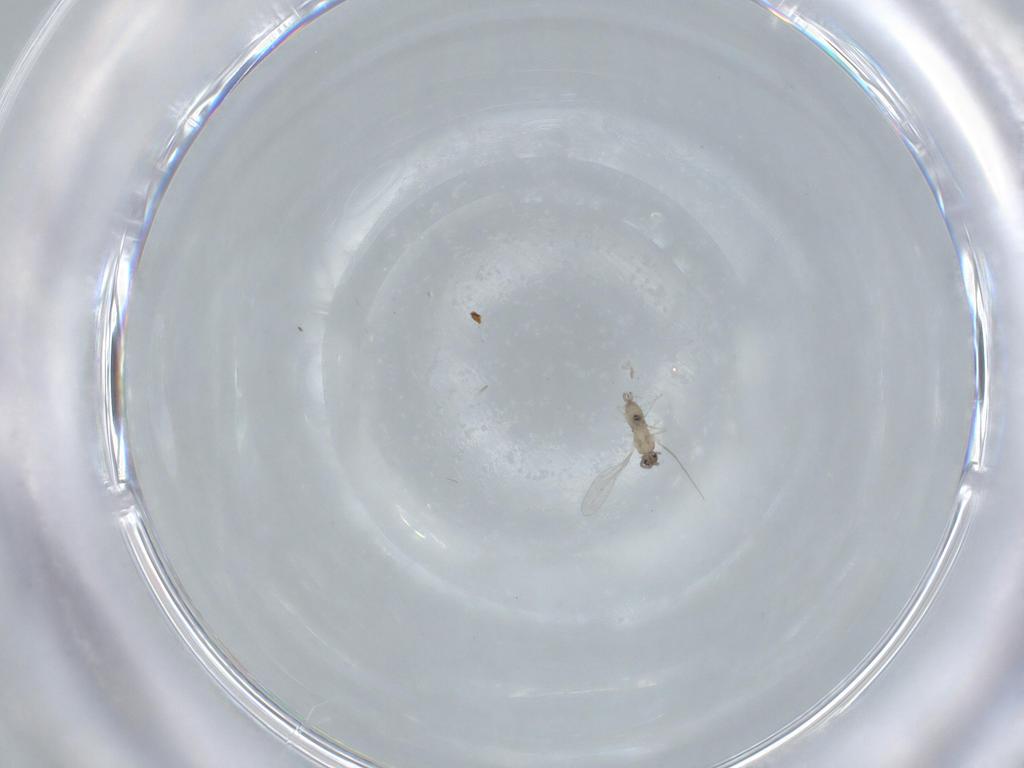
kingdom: Animalia
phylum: Arthropoda
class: Insecta
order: Diptera
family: Cecidomyiidae
